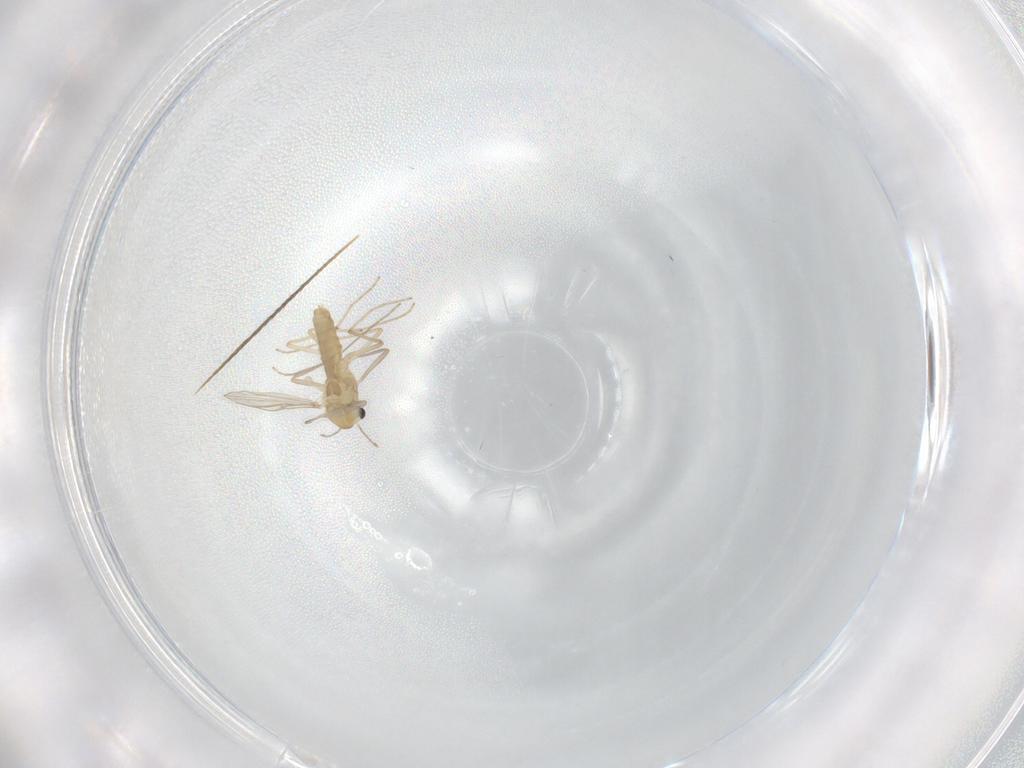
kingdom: Animalia
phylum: Arthropoda
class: Insecta
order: Diptera
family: Chironomidae
